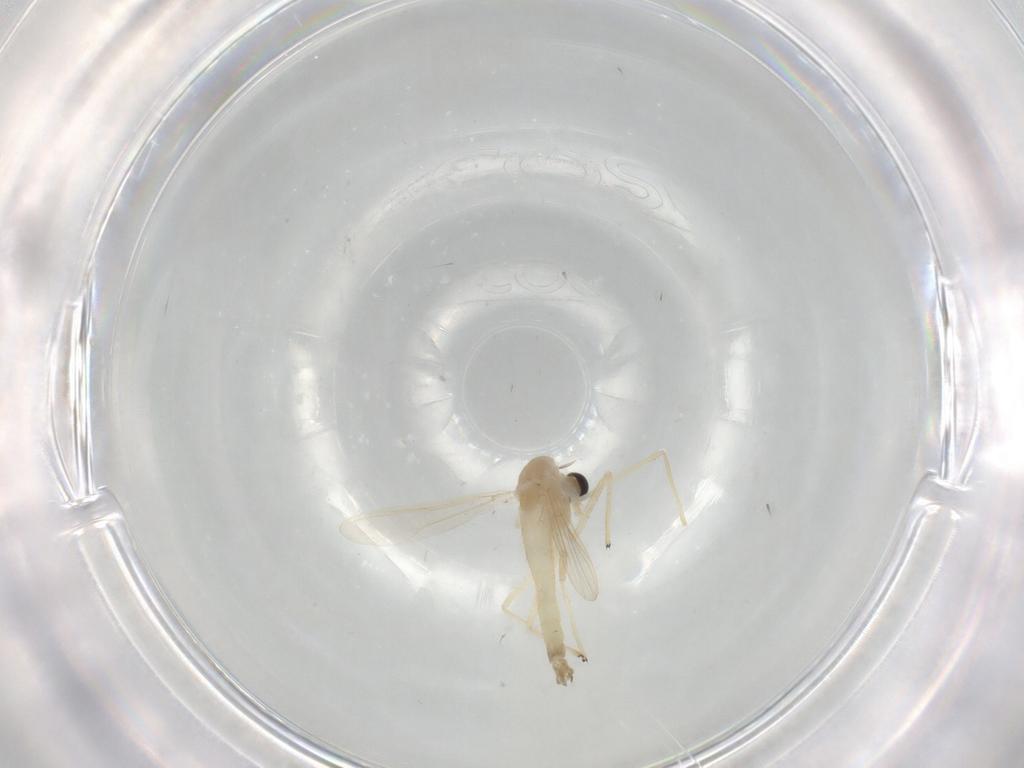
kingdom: Animalia
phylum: Arthropoda
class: Insecta
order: Diptera
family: Chironomidae
